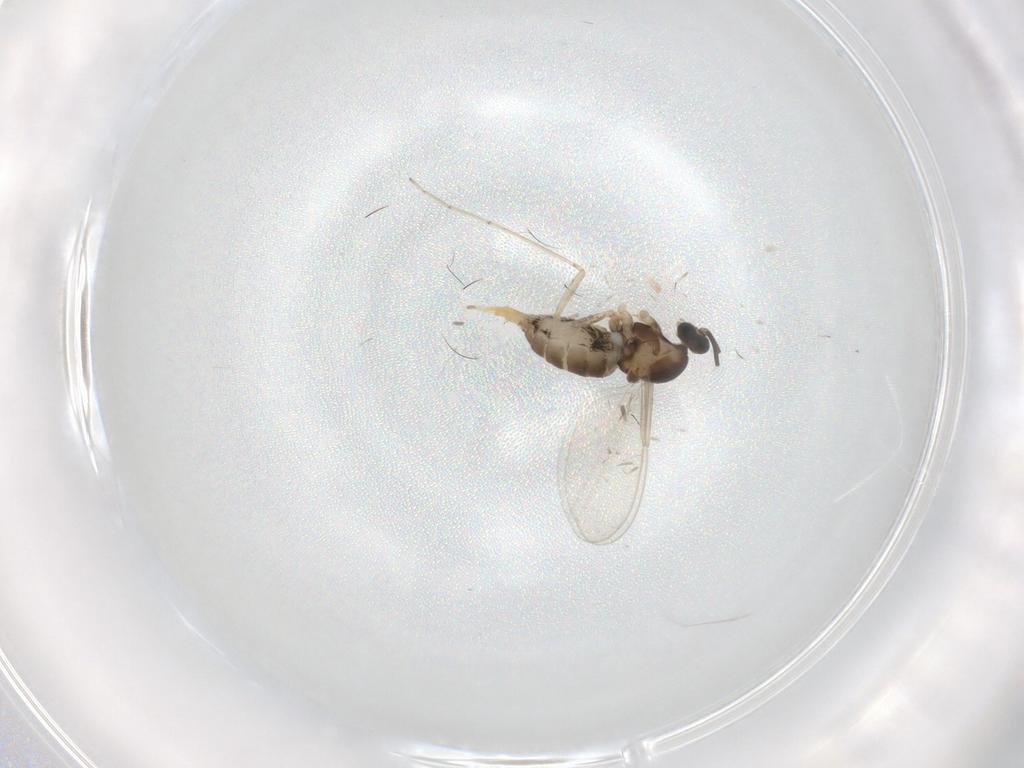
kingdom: Animalia
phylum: Arthropoda
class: Insecta
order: Diptera
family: Cecidomyiidae
